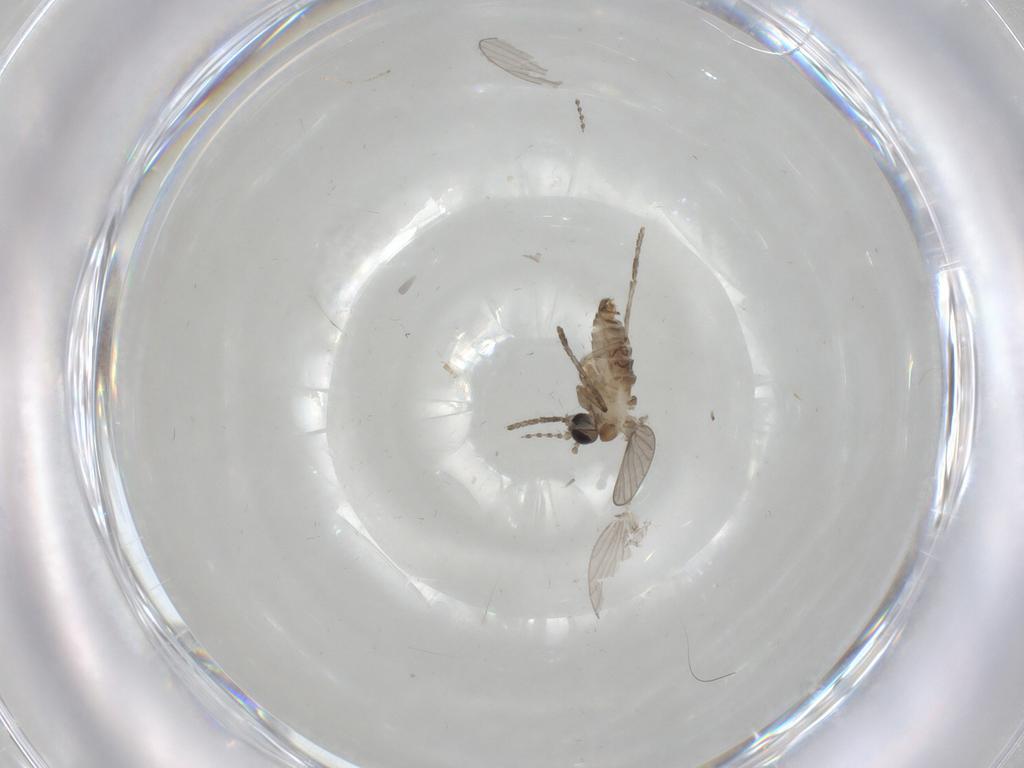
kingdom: Animalia
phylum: Arthropoda
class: Insecta
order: Diptera
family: Psychodidae
